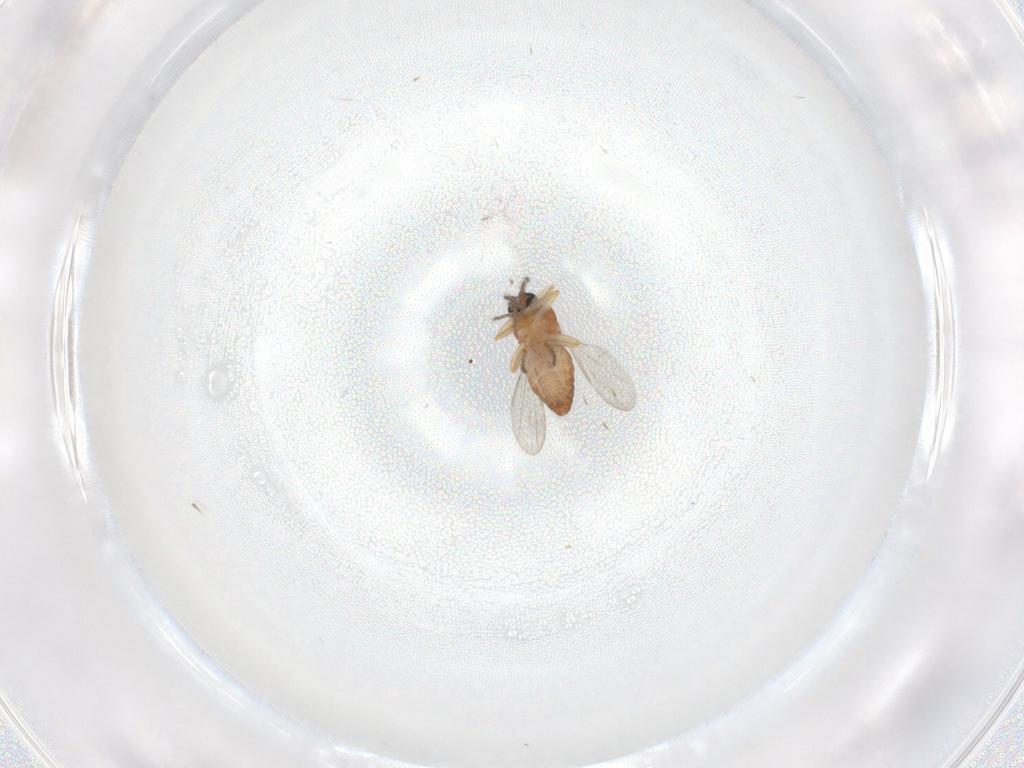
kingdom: Animalia
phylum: Arthropoda
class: Insecta
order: Diptera
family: Ceratopogonidae
